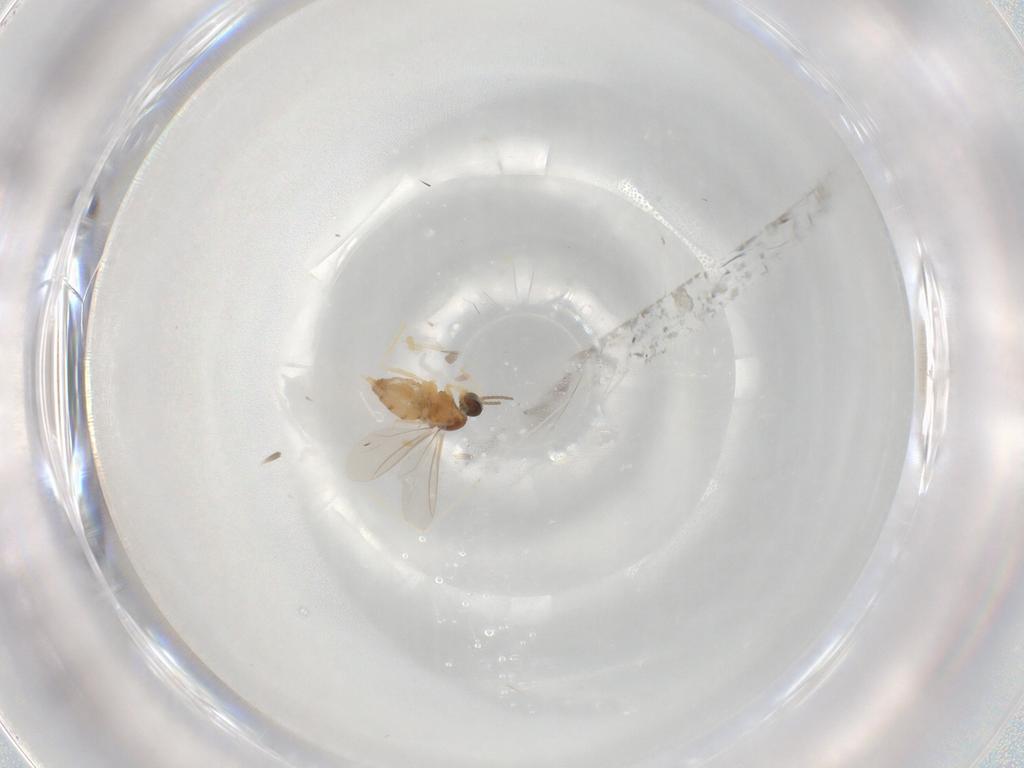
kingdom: Animalia
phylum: Arthropoda
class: Insecta
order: Diptera
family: Cecidomyiidae
